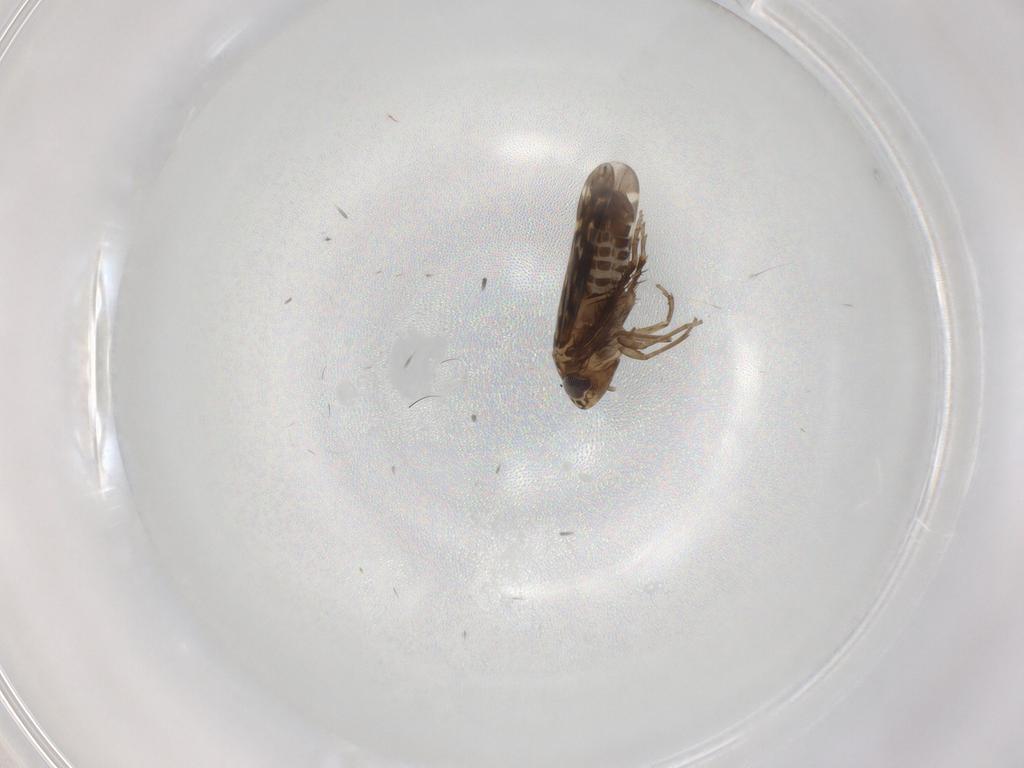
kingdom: Animalia
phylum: Arthropoda
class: Insecta
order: Hemiptera
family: Cicadellidae
